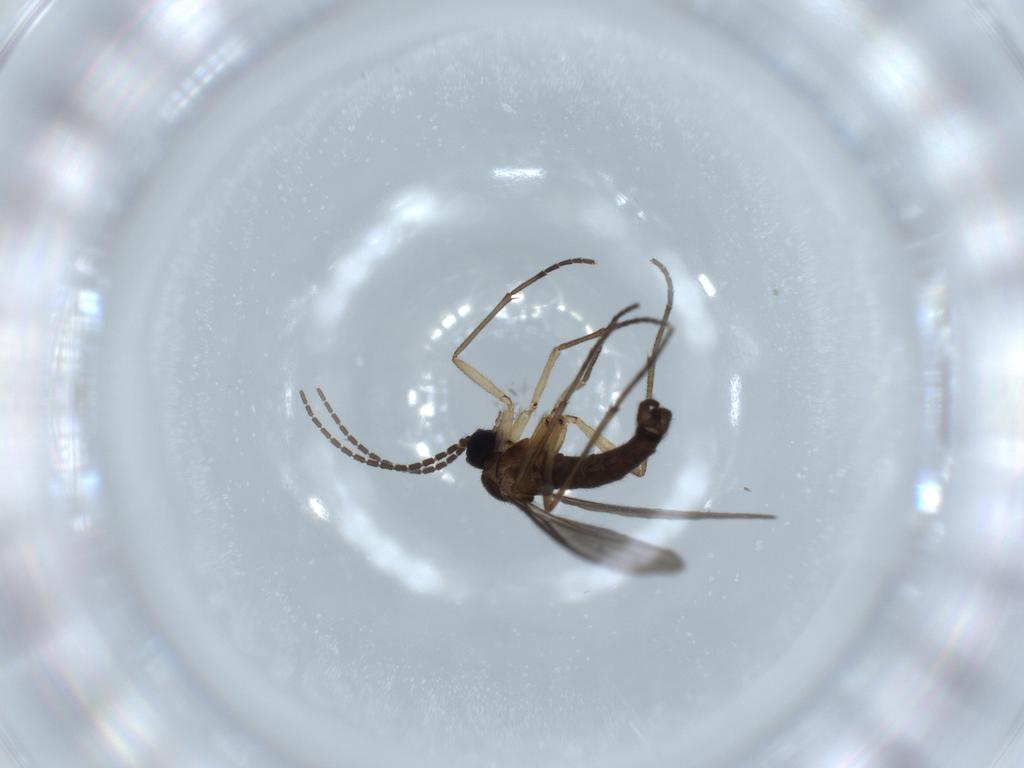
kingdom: Animalia
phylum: Arthropoda
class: Insecta
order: Diptera
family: Sciaridae
